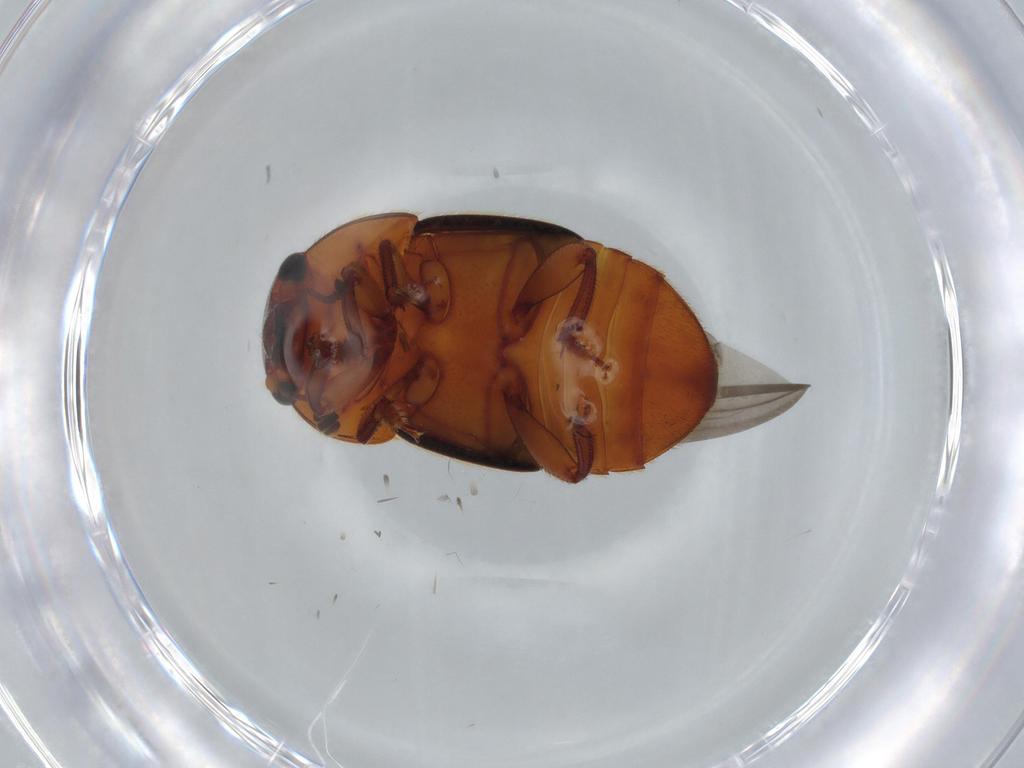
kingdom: Animalia
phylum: Arthropoda
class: Insecta
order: Coleoptera
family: Nitidulidae
